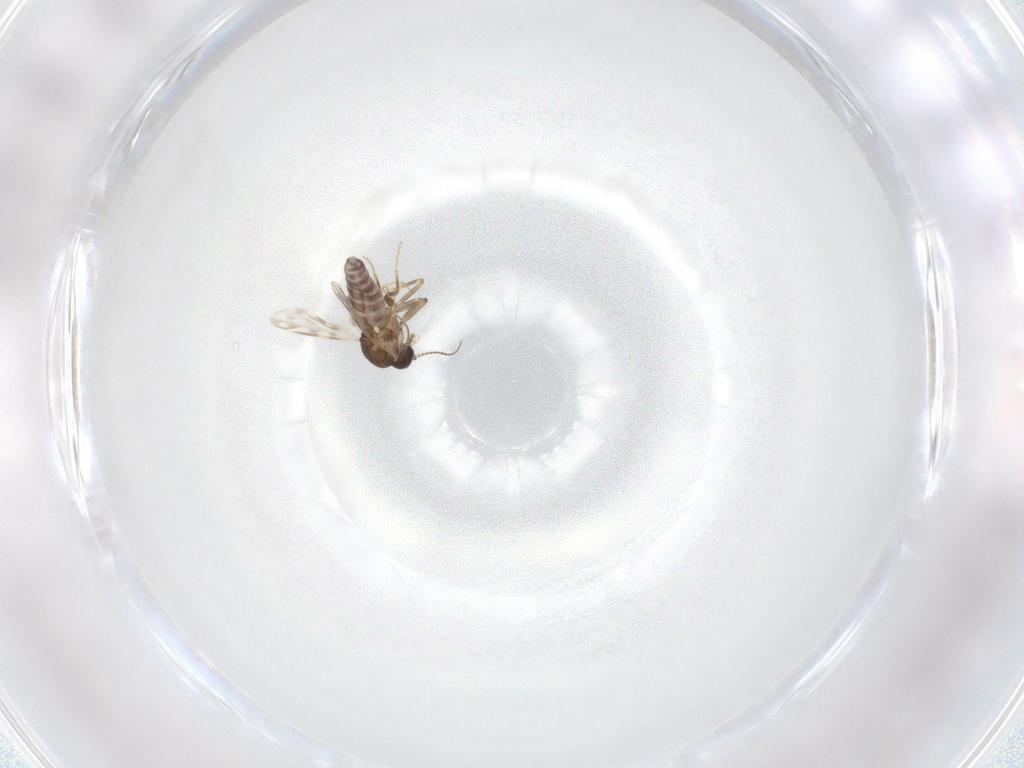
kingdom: Animalia
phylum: Arthropoda
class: Insecta
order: Diptera
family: Ceratopogonidae
